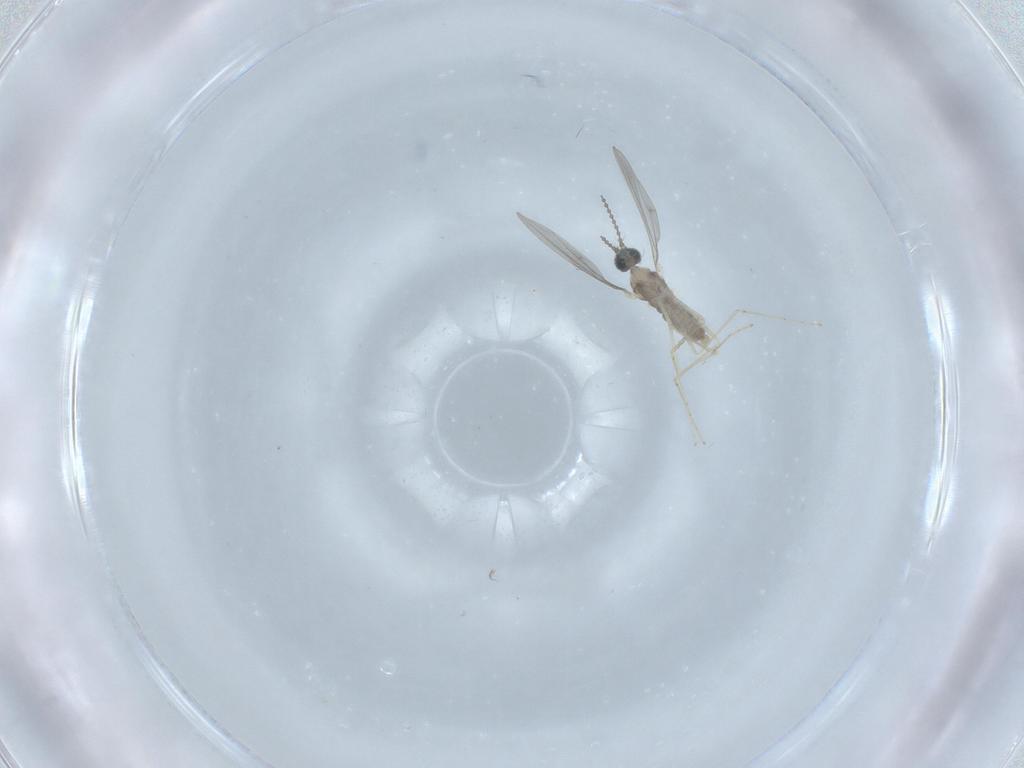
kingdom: Animalia
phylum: Arthropoda
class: Insecta
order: Diptera
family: Cecidomyiidae
